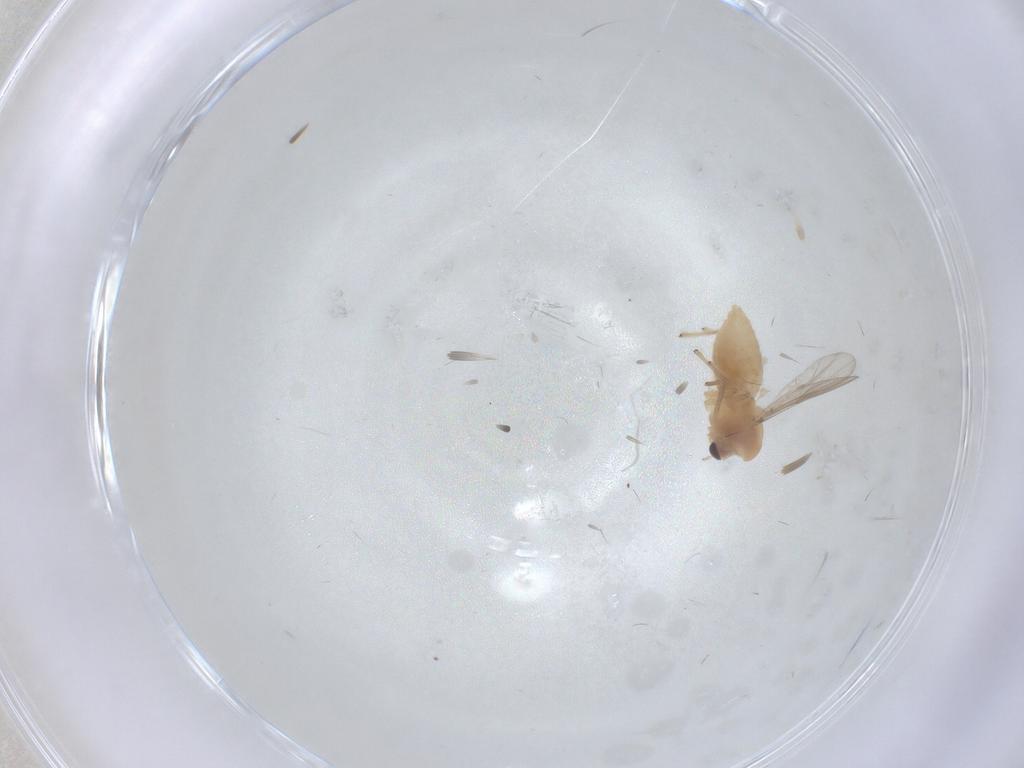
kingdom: Animalia
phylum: Arthropoda
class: Insecta
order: Diptera
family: Chironomidae
